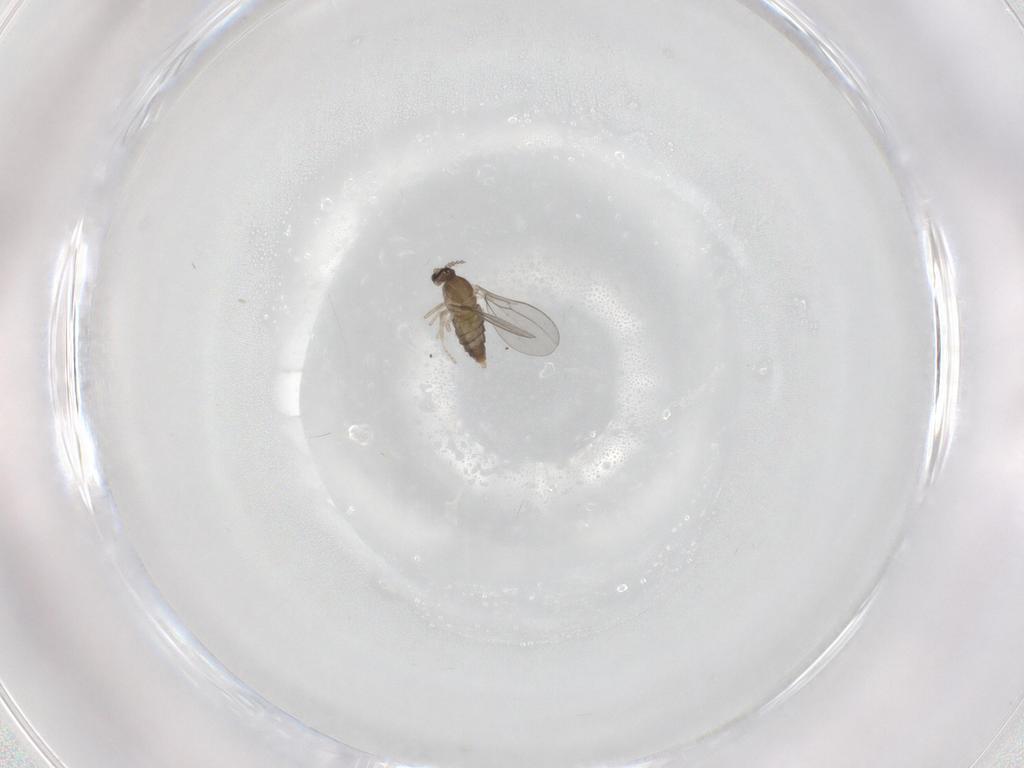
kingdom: Animalia
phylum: Arthropoda
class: Insecta
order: Diptera
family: Cecidomyiidae
